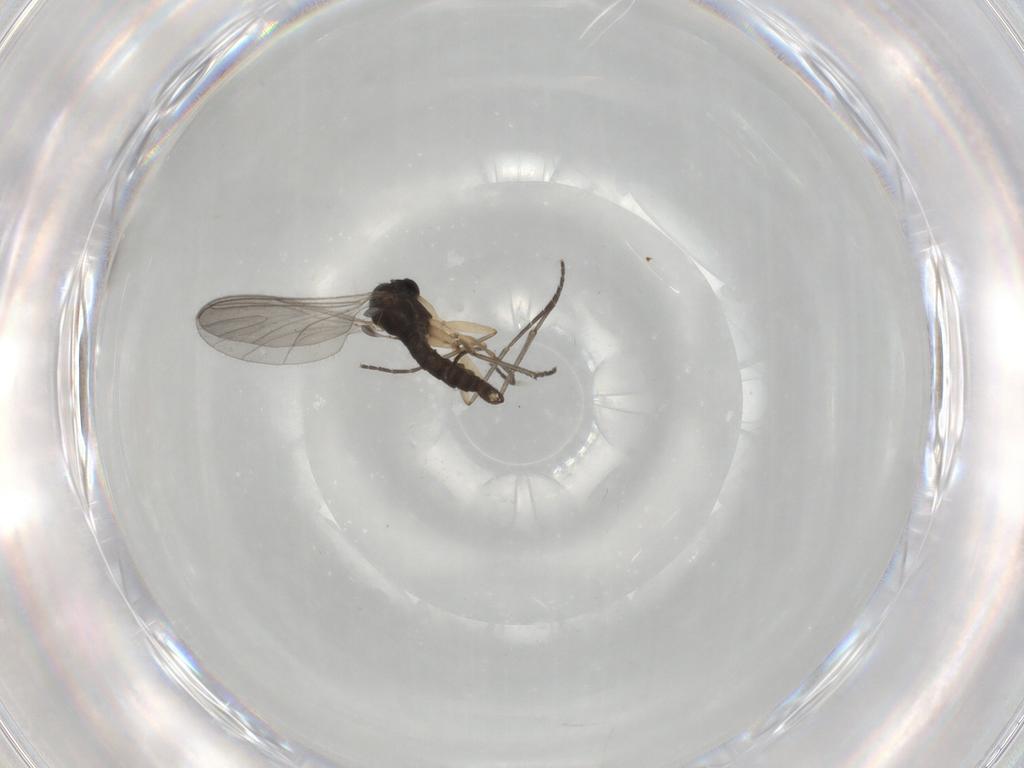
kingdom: Animalia
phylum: Arthropoda
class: Insecta
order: Diptera
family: Sciaridae
